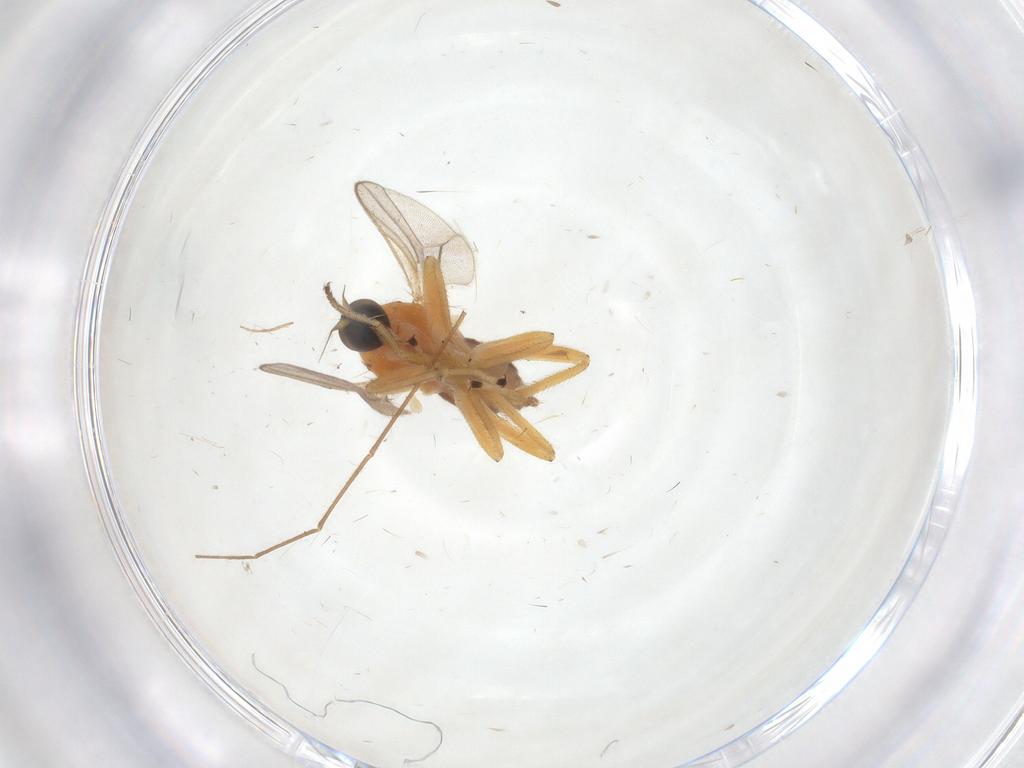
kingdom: Animalia
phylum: Arthropoda
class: Insecta
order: Diptera
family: Hybotidae
